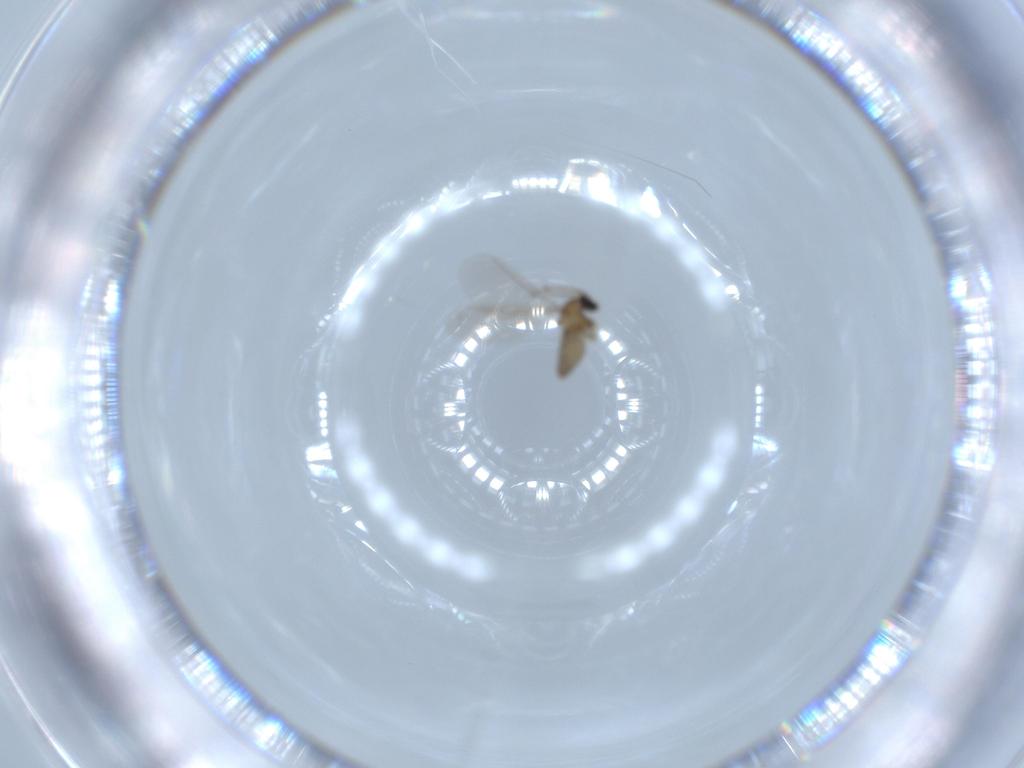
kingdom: Animalia
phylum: Arthropoda
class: Insecta
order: Diptera
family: Cecidomyiidae
